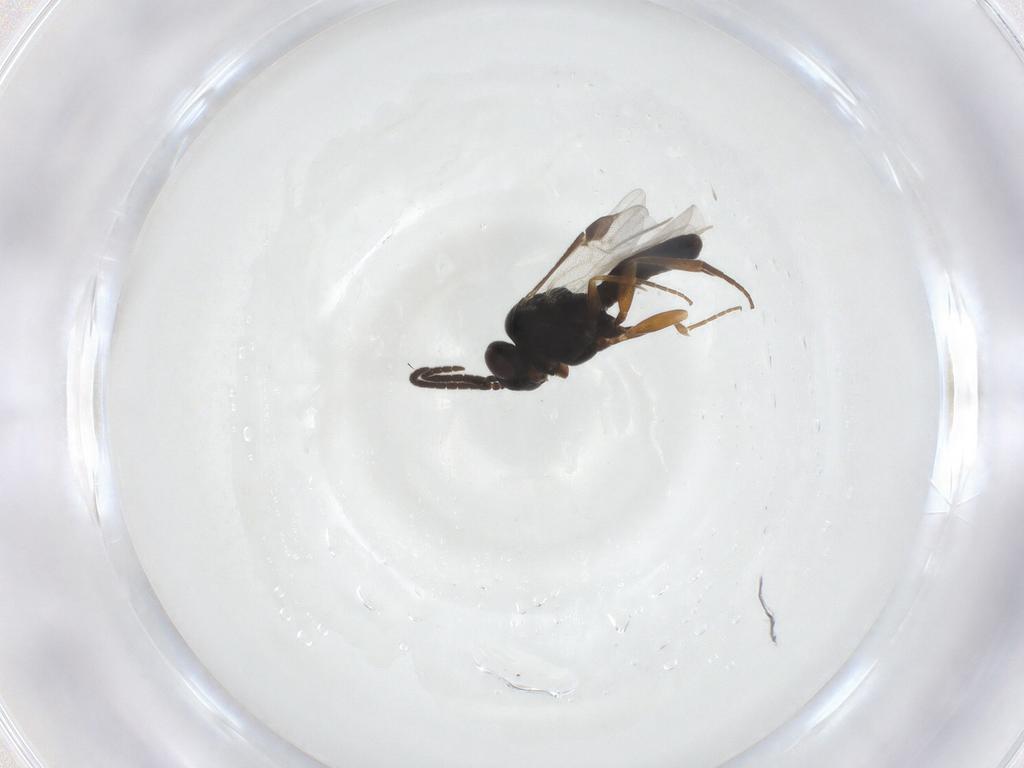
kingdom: Animalia
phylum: Arthropoda
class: Insecta
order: Hymenoptera
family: Braconidae
